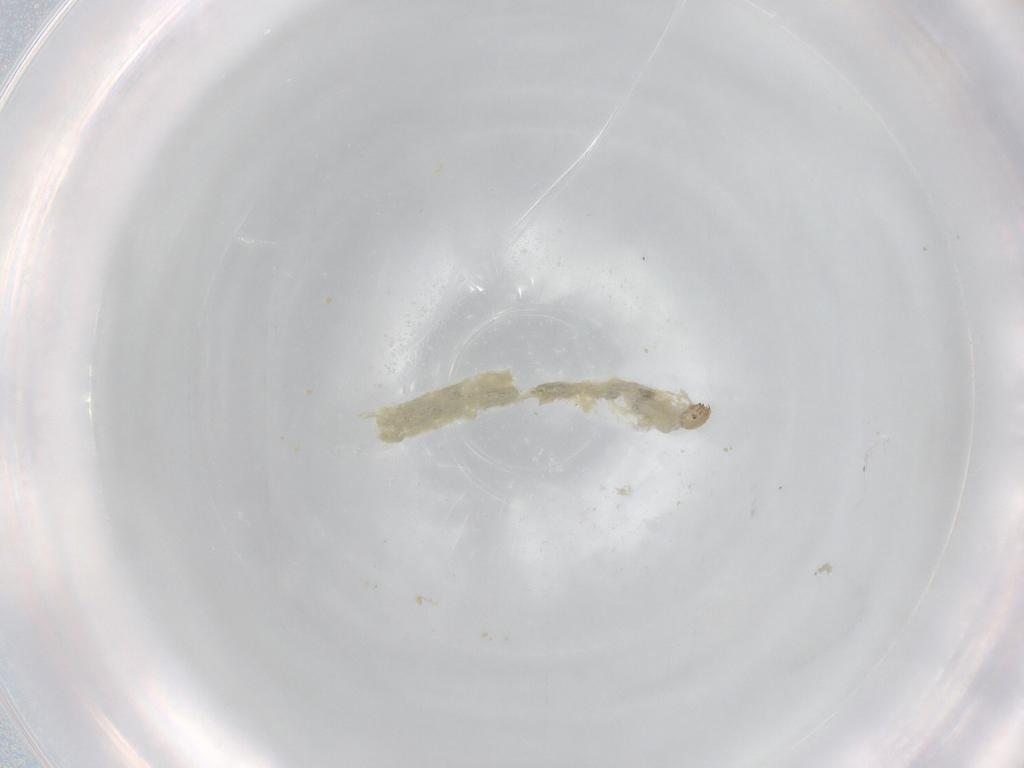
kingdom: Animalia
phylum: Arthropoda
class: Insecta
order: Diptera
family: Chironomidae
